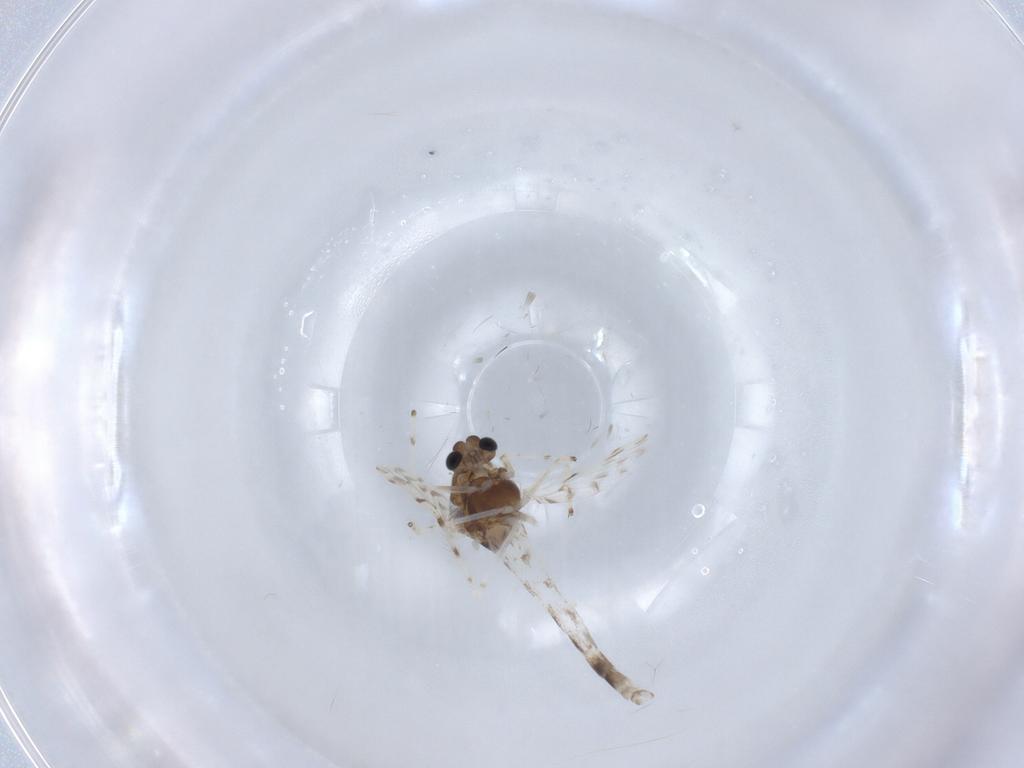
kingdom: Animalia
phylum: Arthropoda
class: Insecta
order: Diptera
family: Chironomidae
